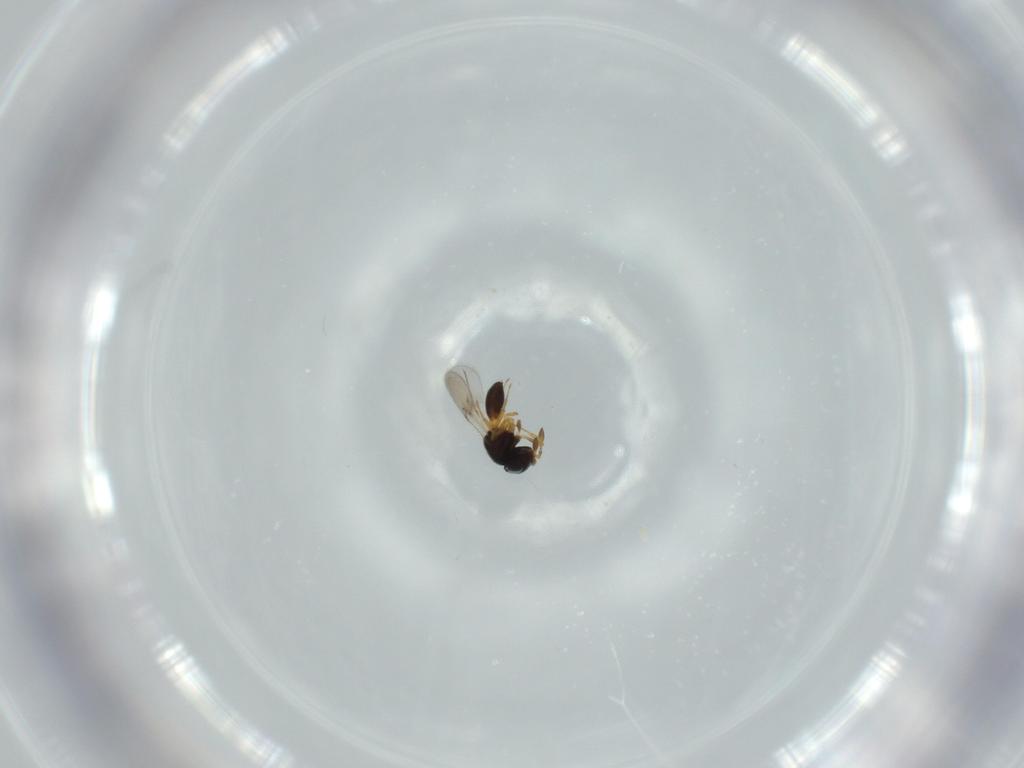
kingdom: Animalia
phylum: Arthropoda
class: Insecta
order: Hymenoptera
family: Scelionidae
